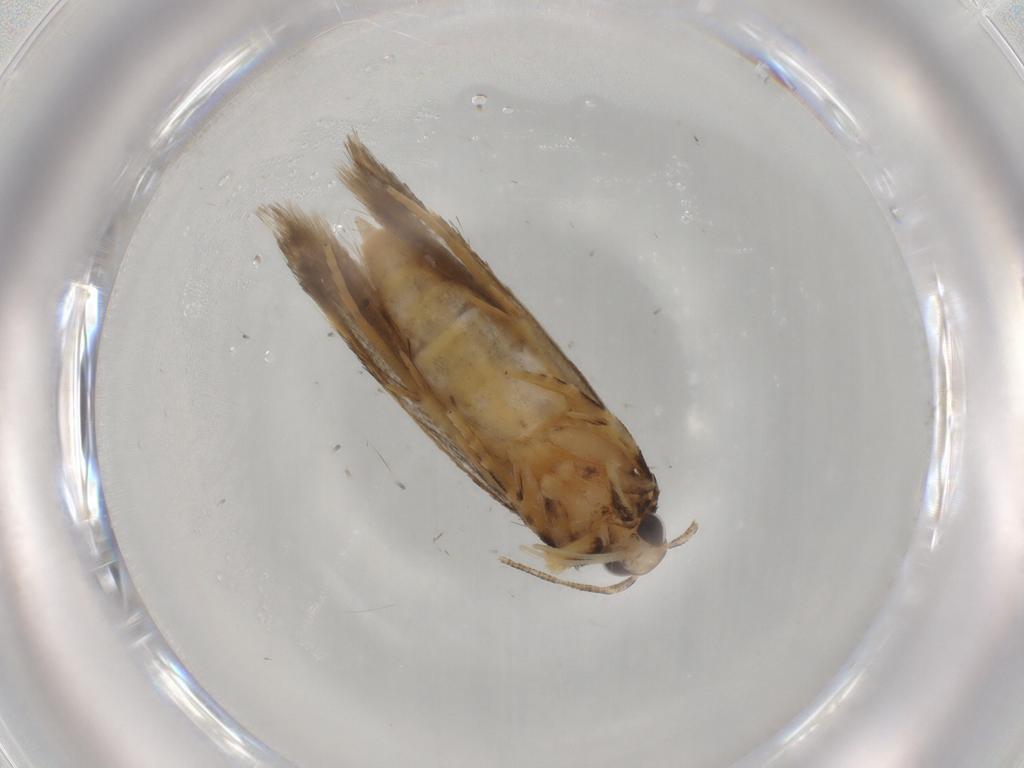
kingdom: Animalia
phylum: Arthropoda
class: Insecta
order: Lepidoptera
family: Autostichidae
